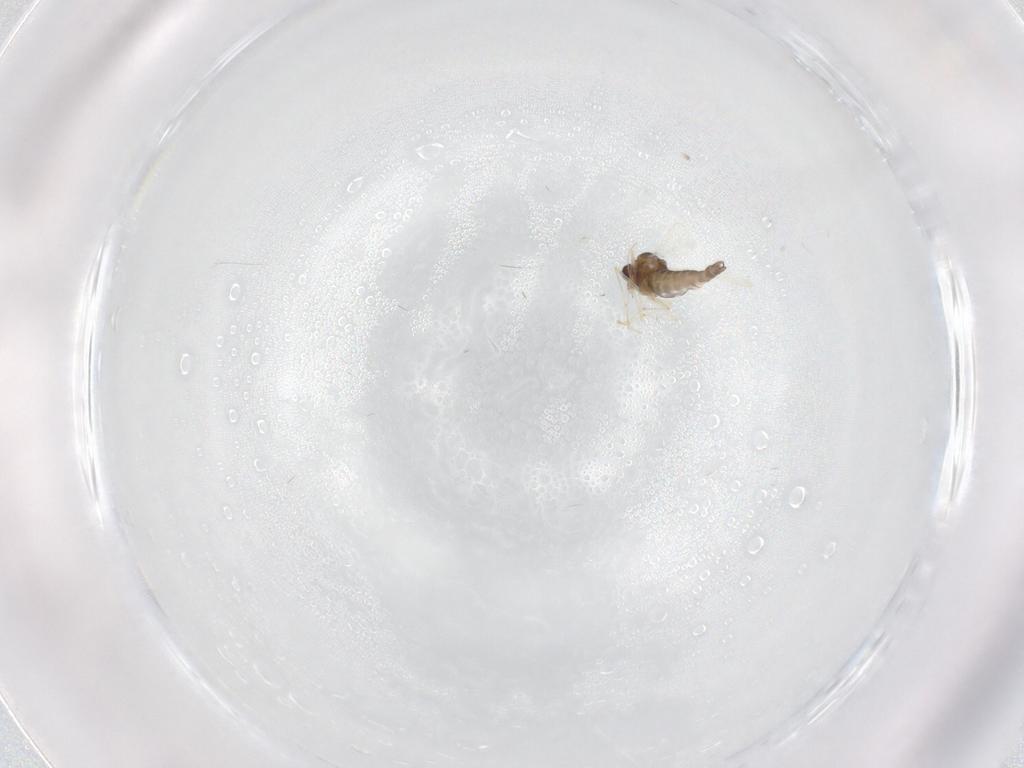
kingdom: Animalia
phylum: Arthropoda
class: Insecta
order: Diptera
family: Chironomidae
